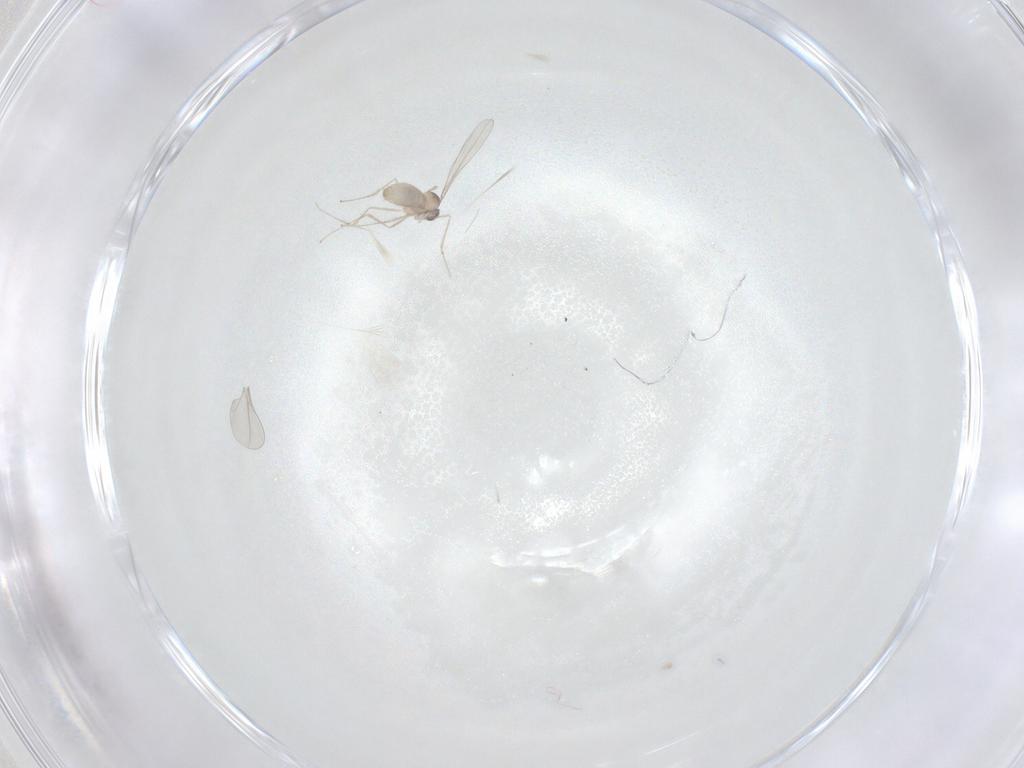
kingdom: Animalia
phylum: Arthropoda
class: Insecta
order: Diptera
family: Cecidomyiidae
